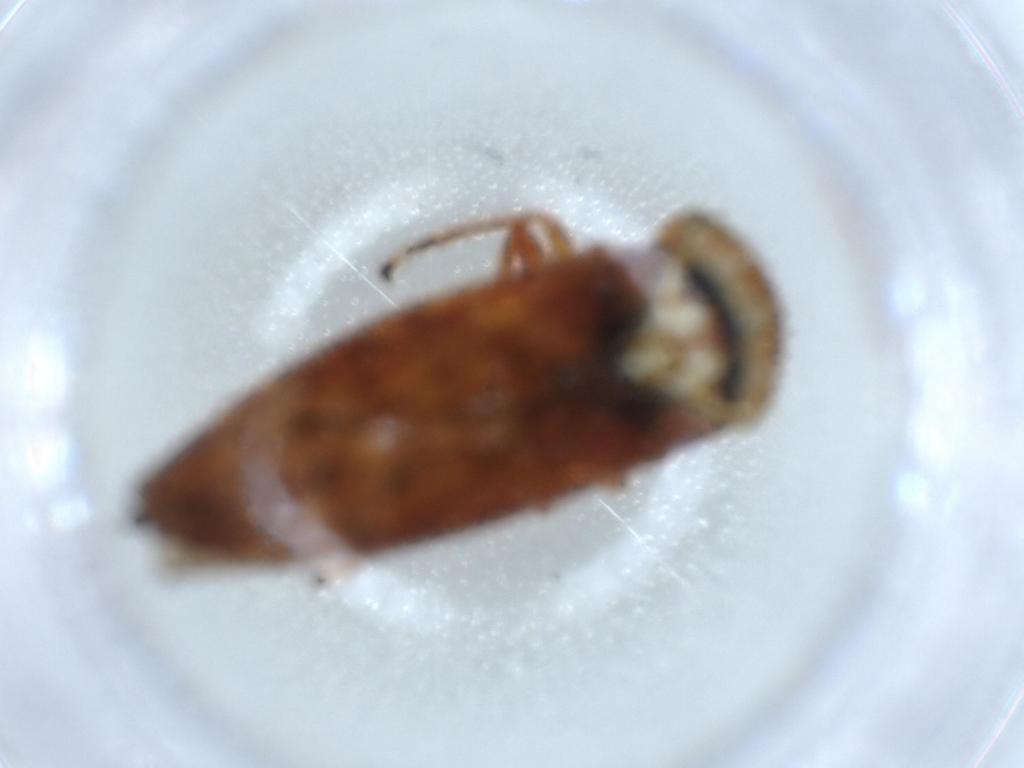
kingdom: Animalia
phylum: Arthropoda
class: Insecta
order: Hemiptera
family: Cicadellidae
